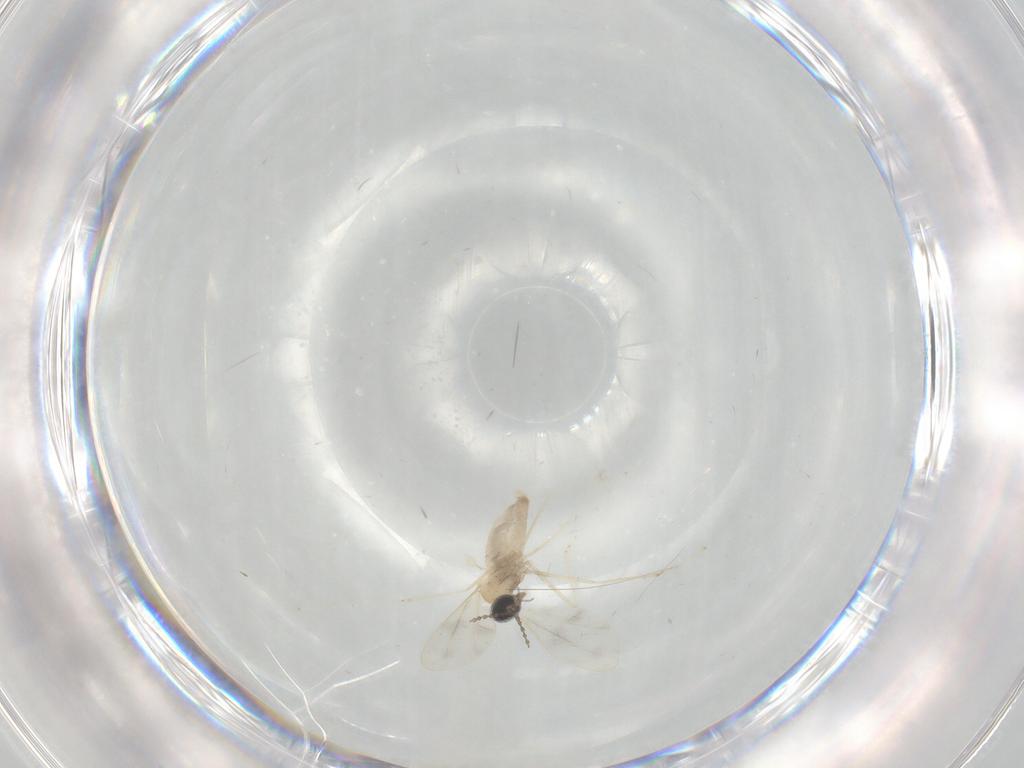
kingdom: Animalia
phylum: Arthropoda
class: Insecta
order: Diptera
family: Cecidomyiidae
